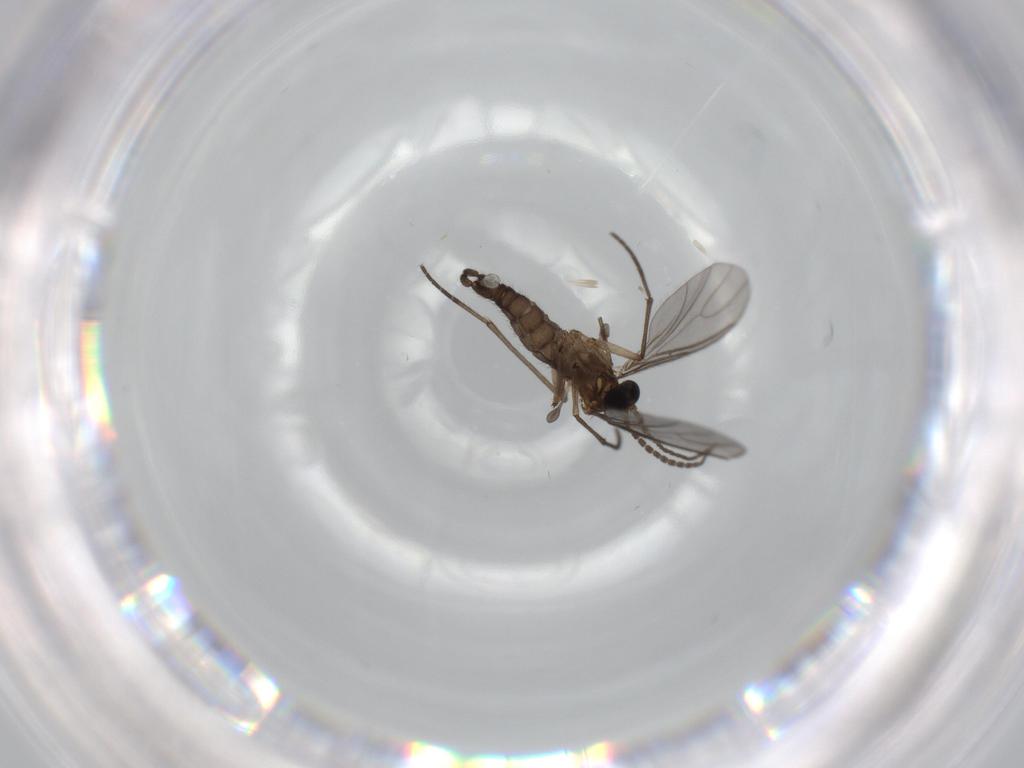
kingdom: Animalia
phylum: Arthropoda
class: Insecta
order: Diptera
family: Sciaridae
